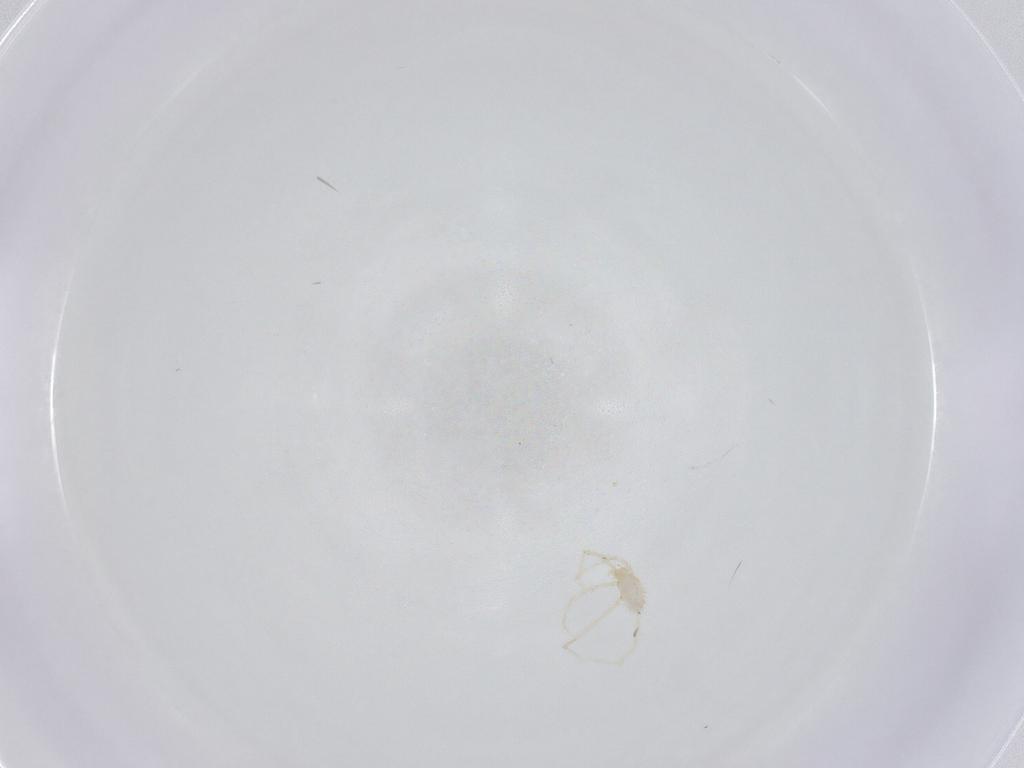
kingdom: Animalia
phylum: Arthropoda
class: Arachnida
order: Trombidiformes
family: Erythraeidae
